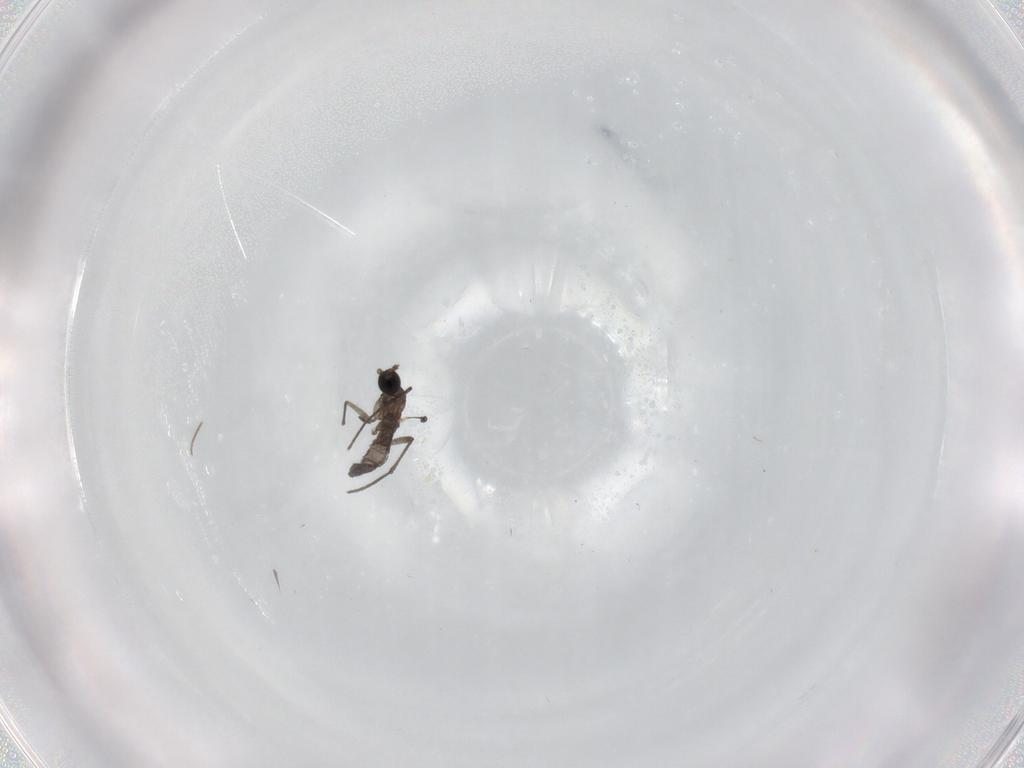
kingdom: Animalia
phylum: Arthropoda
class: Insecta
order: Diptera
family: Chironomidae
